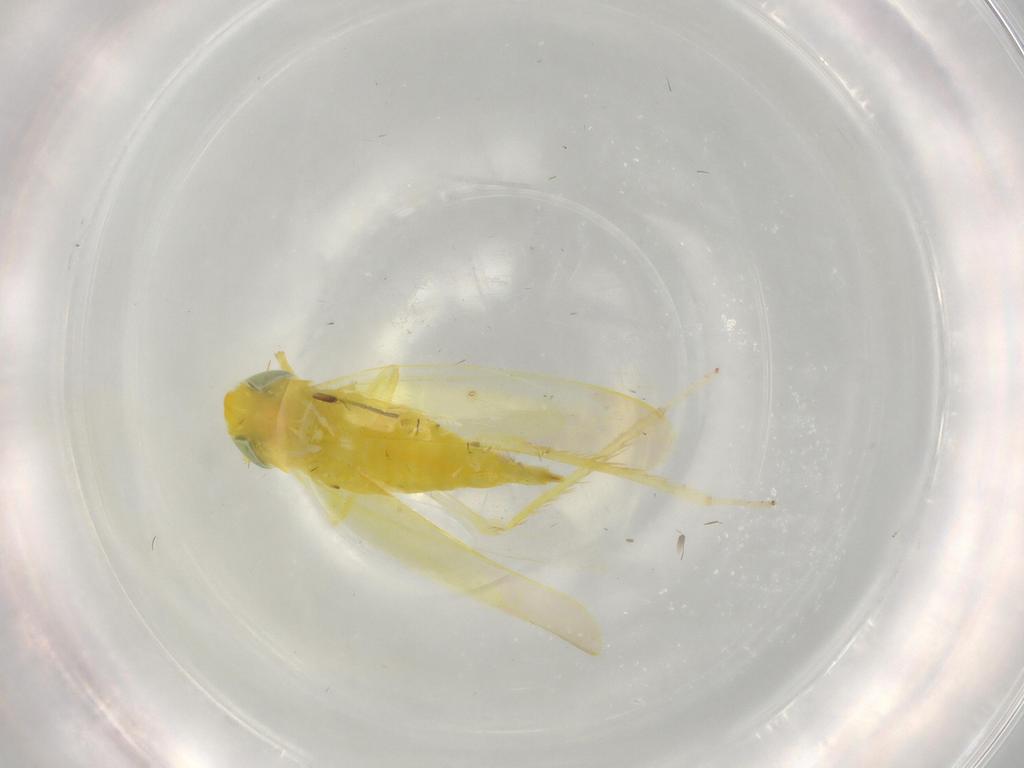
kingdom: Animalia
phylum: Arthropoda
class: Insecta
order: Hemiptera
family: Cicadellidae
